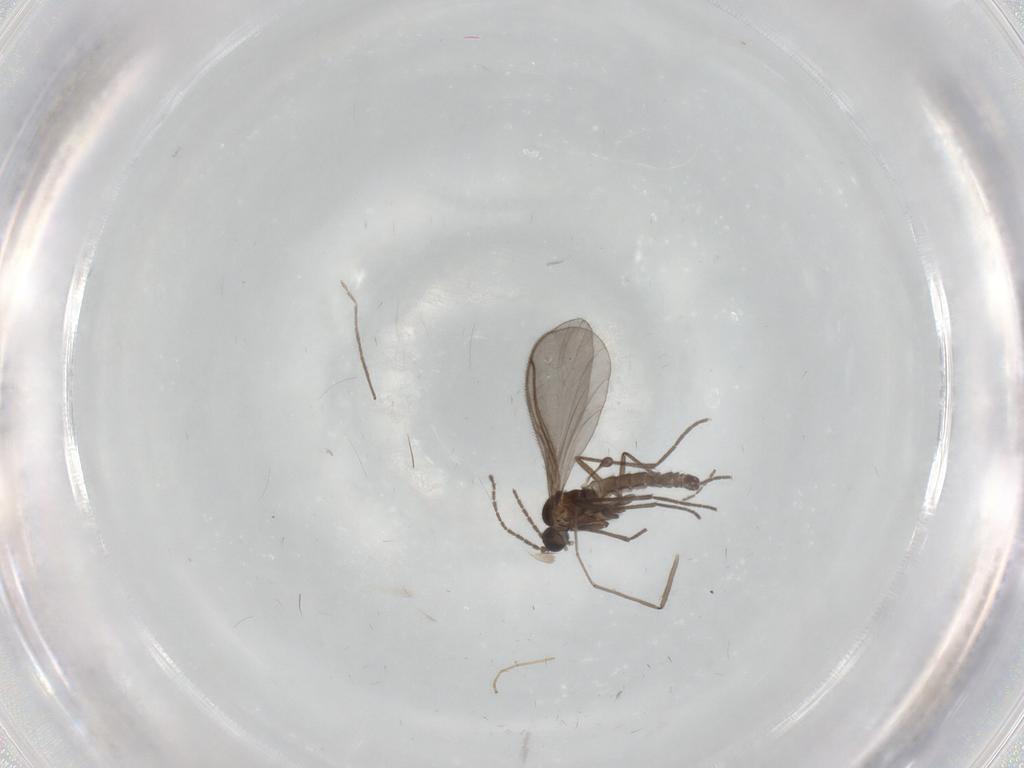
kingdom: Animalia
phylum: Arthropoda
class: Insecta
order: Diptera
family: Sciaridae
